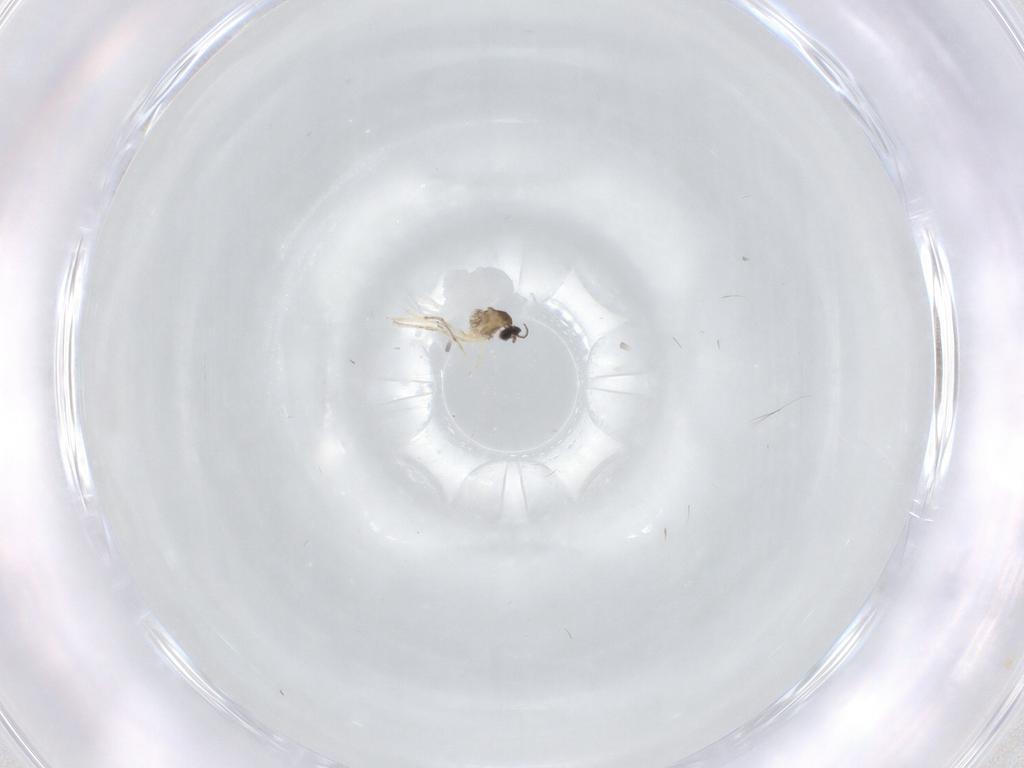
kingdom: Animalia
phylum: Arthropoda
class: Insecta
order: Diptera
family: Cecidomyiidae
